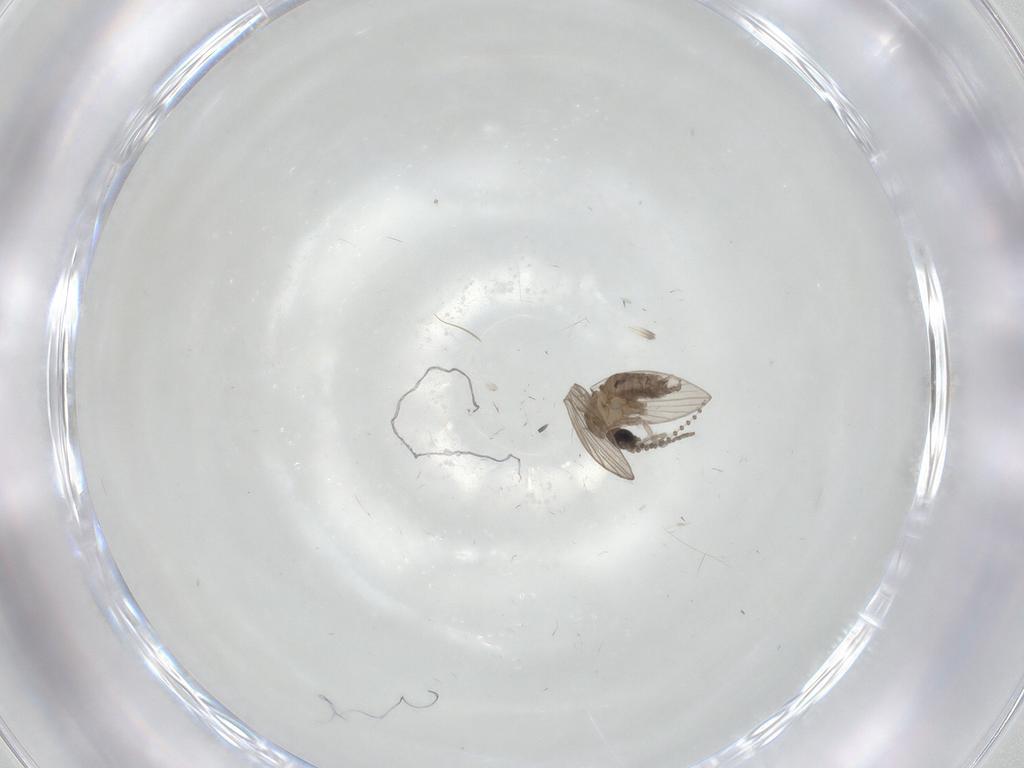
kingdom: Animalia
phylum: Arthropoda
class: Insecta
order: Diptera
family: Psychodidae
